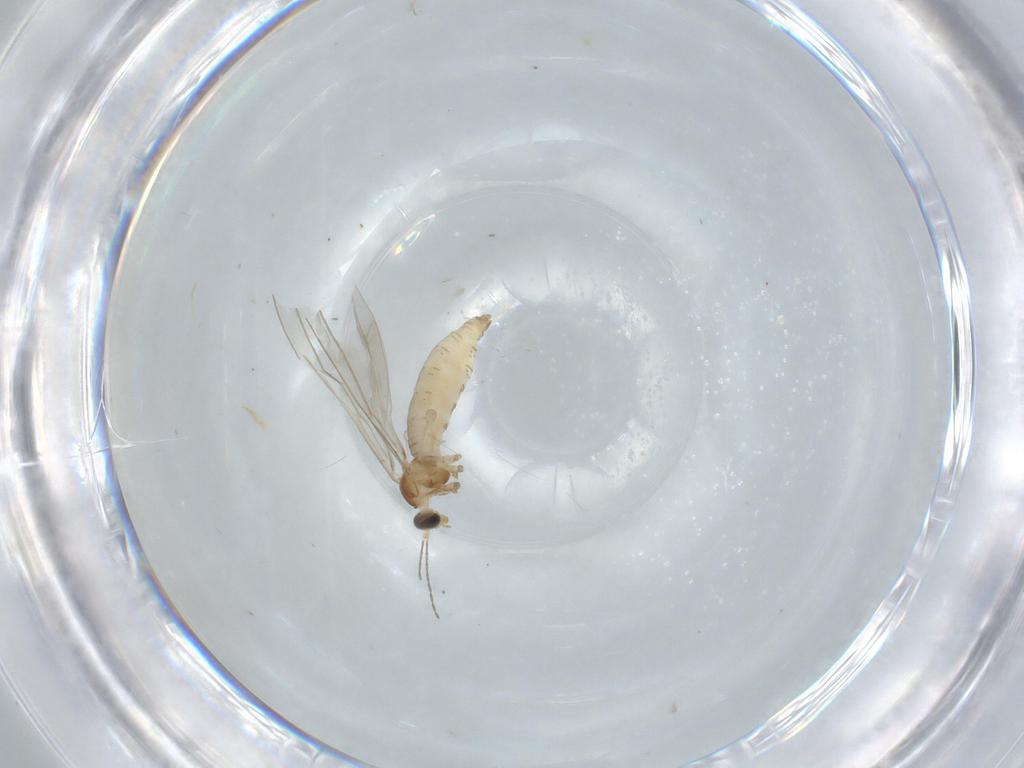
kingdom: Animalia
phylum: Arthropoda
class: Insecta
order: Diptera
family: Cecidomyiidae
